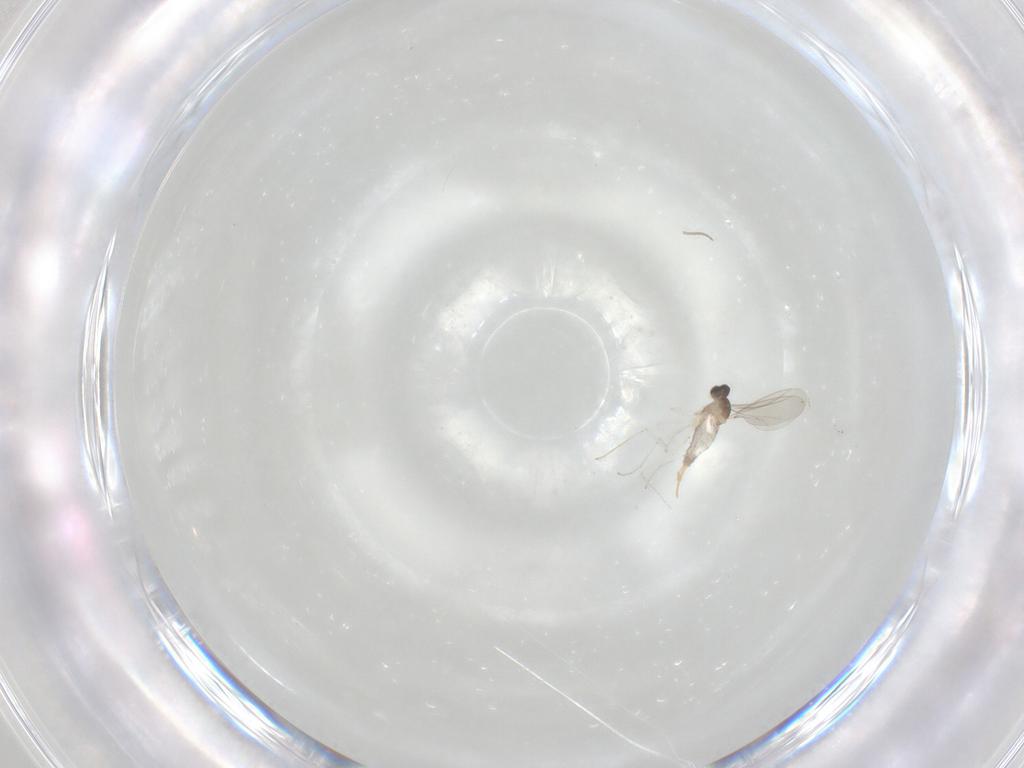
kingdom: Animalia
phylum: Arthropoda
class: Insecta
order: Diptera
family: Cecidomyiidae
